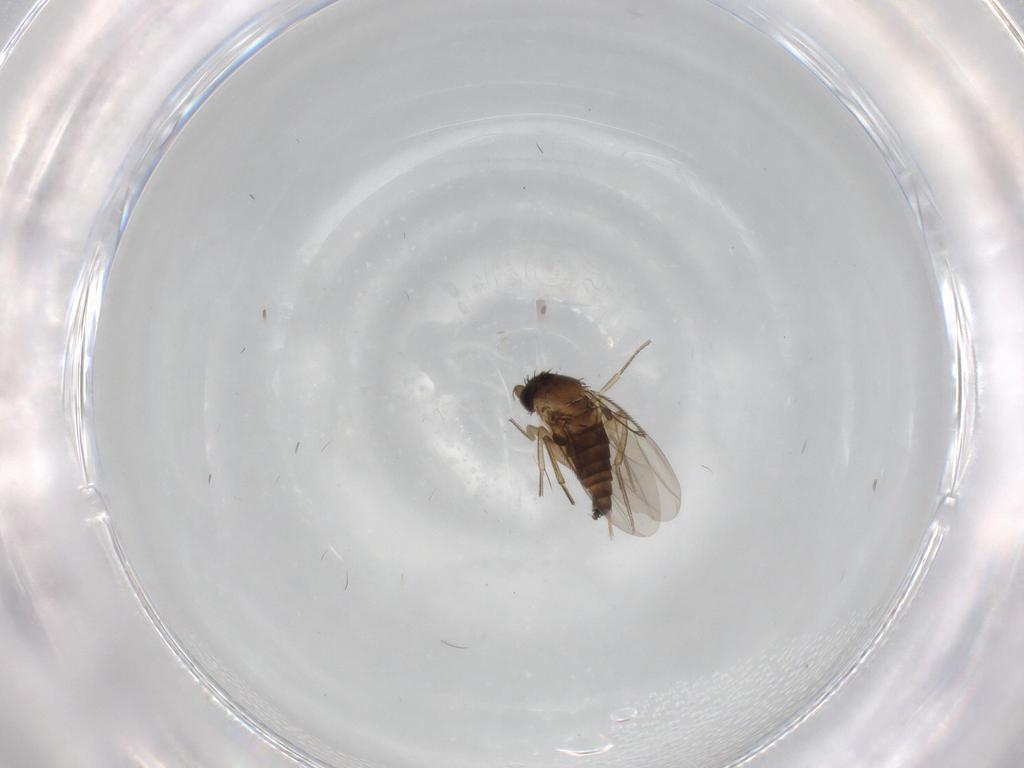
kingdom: Animalia
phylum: Arthropoda
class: Insecta
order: Diptera
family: Phoridae
